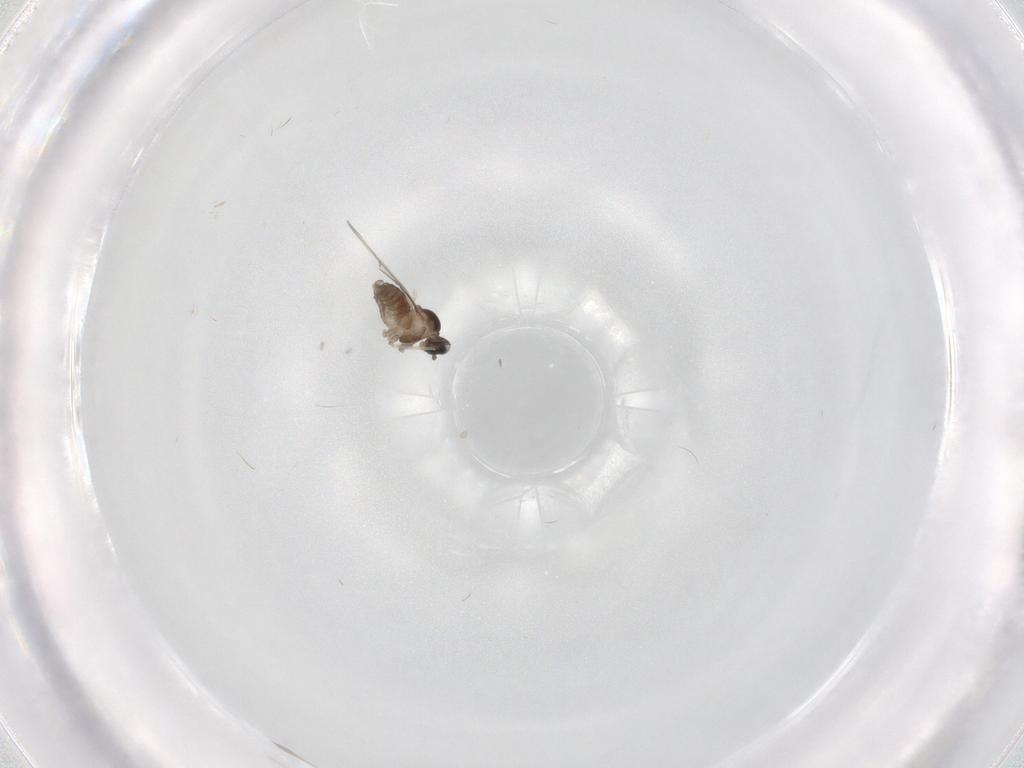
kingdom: Animalia
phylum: Arthropoda
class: Insecta
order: Diptera
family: Cecidomyiidae
